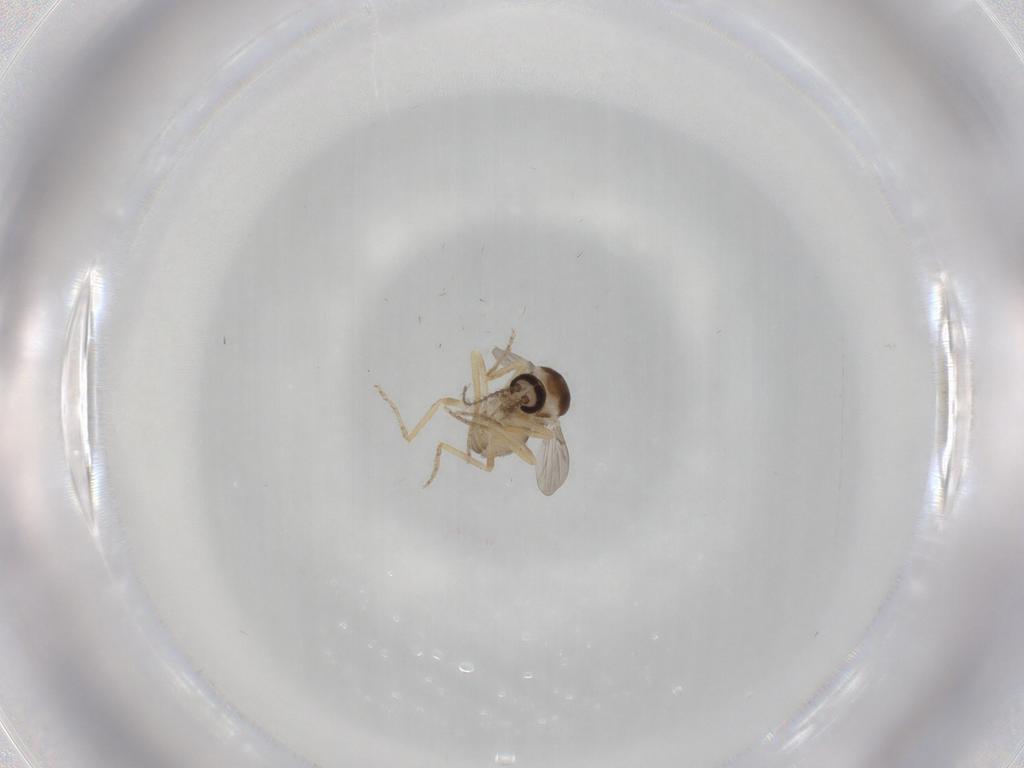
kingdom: Animalia
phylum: Arthropoda
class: Insecta
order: Diptera
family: Ceratopogonidae
